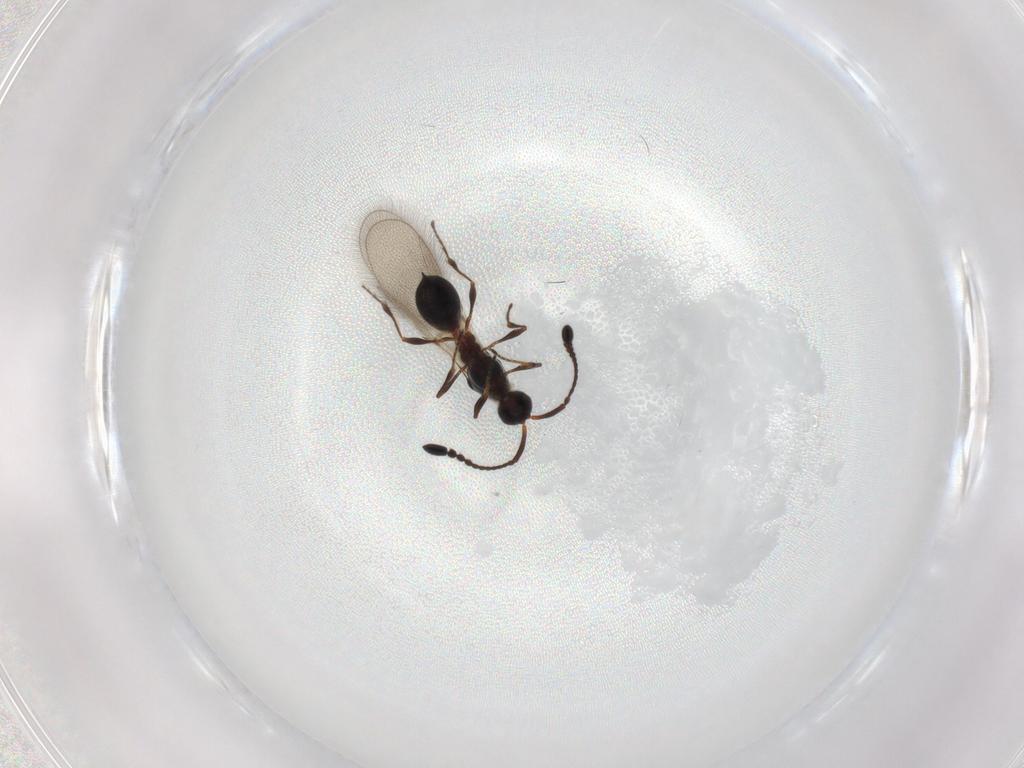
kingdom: Animalia
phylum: Arthropoda
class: Insecta
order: Hymenoptera
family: Diapriidae
